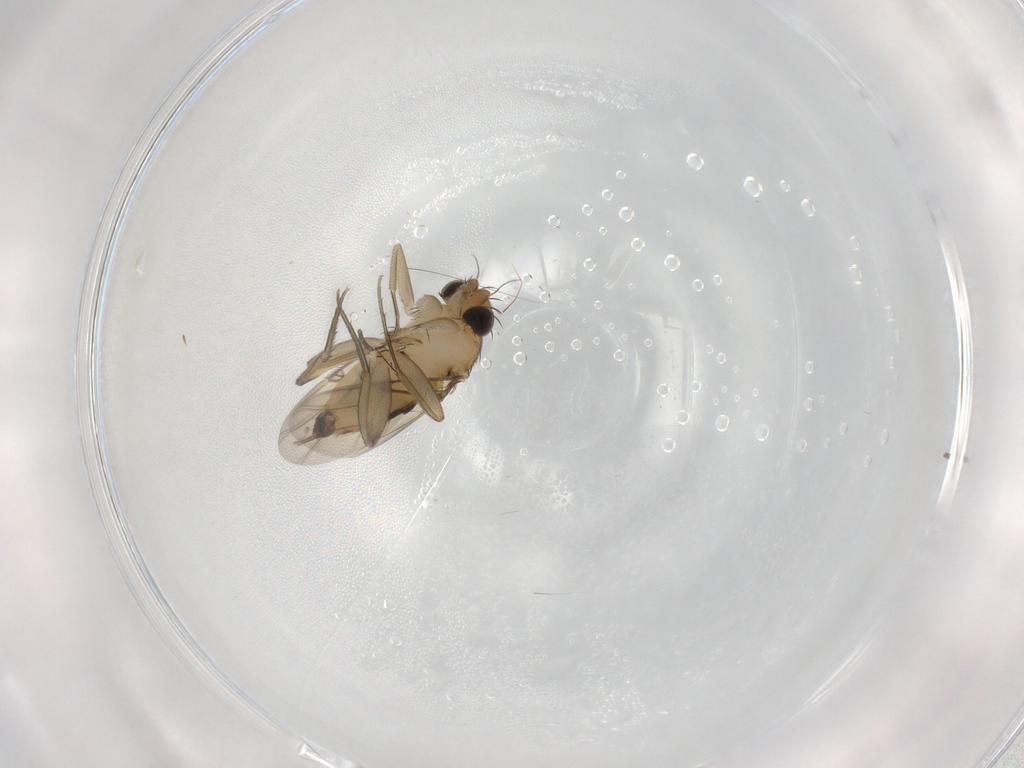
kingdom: Animalia
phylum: Arthropoda
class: Insecta
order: Diptera
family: Phoridae
